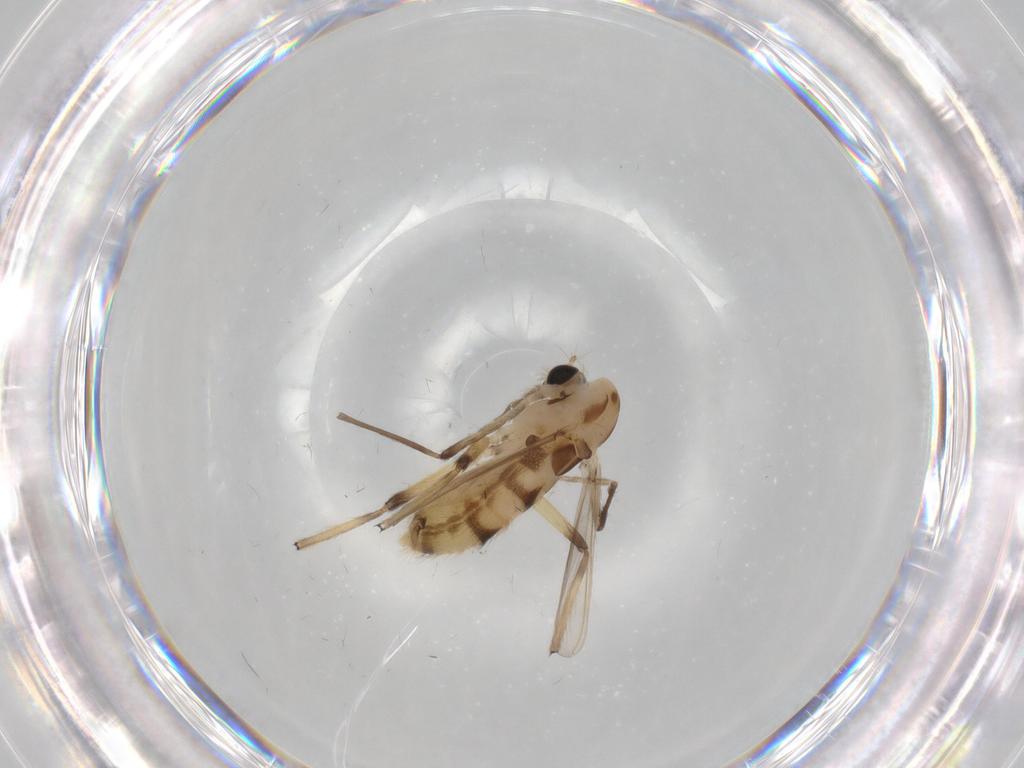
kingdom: Animalia
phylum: Arthropoda
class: Insecta
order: Diptera
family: Chironomidae
